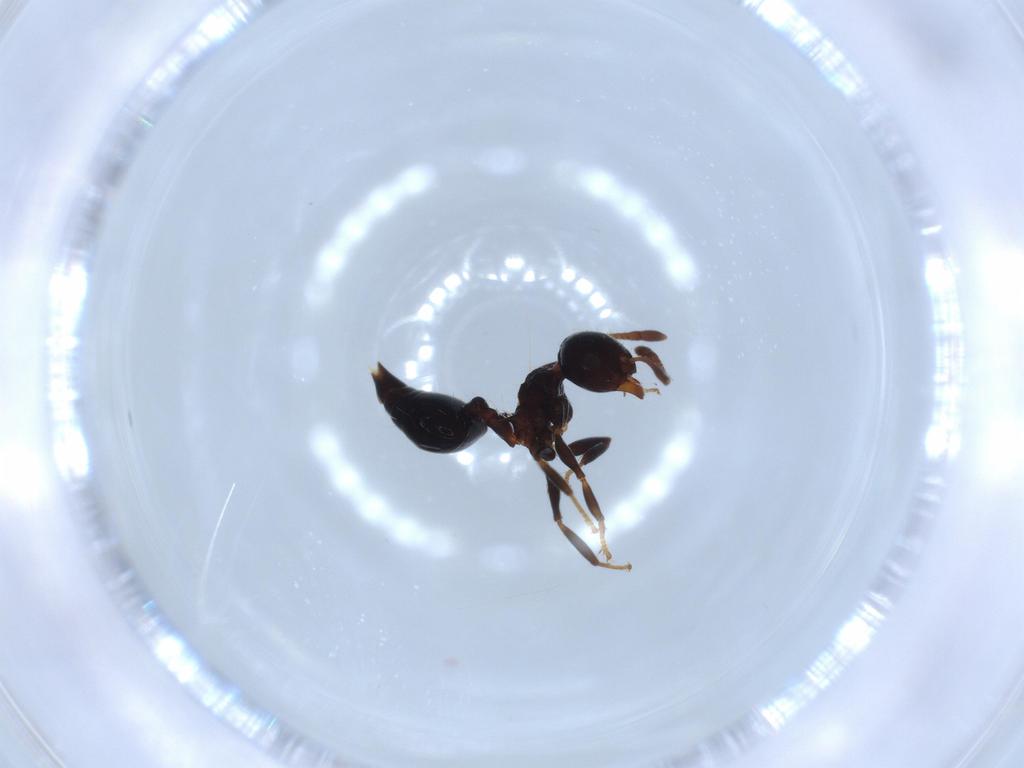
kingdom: Animalia
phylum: Arthropoda
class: Insecta
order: Hymenoptera
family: Formicidae
